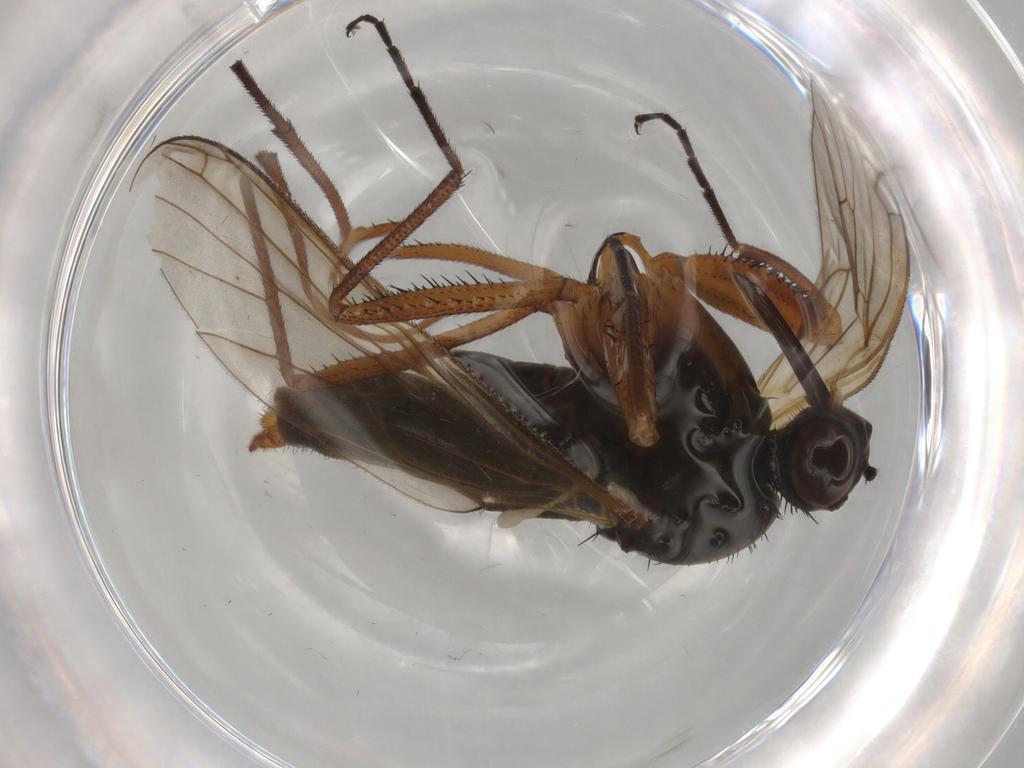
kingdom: Animalia
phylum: Arthropoda
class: Insecta
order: Diptera
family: Empididae
